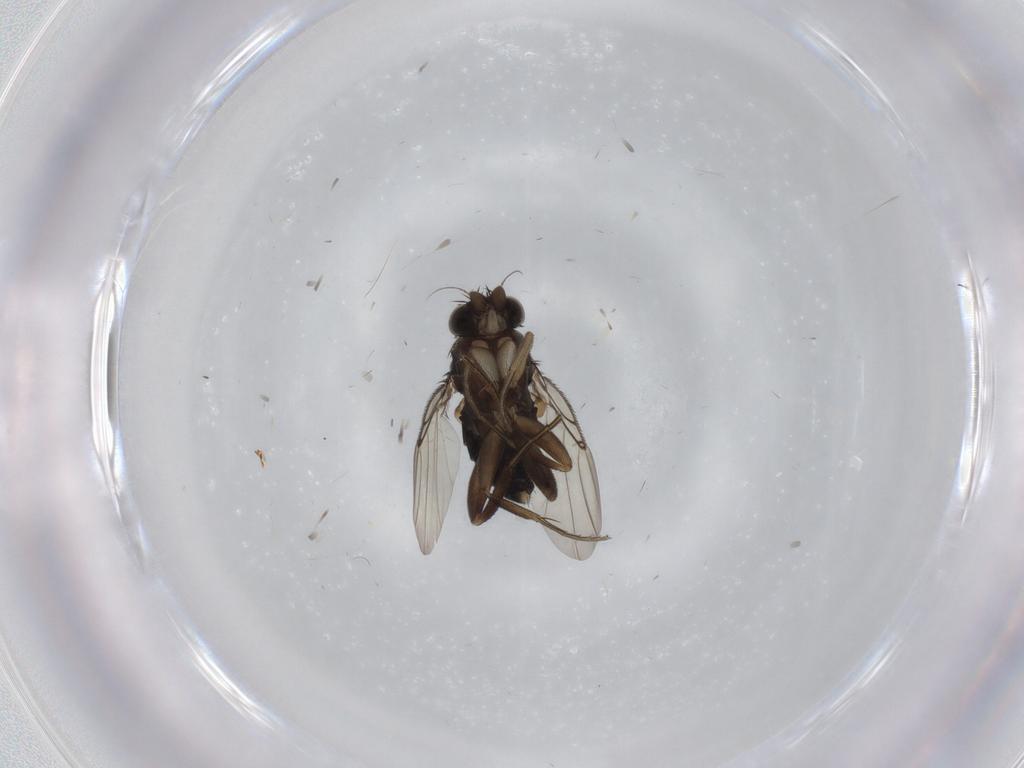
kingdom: Animalia
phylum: Arthropoda
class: Insecta
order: Diptera
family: Phoridae
